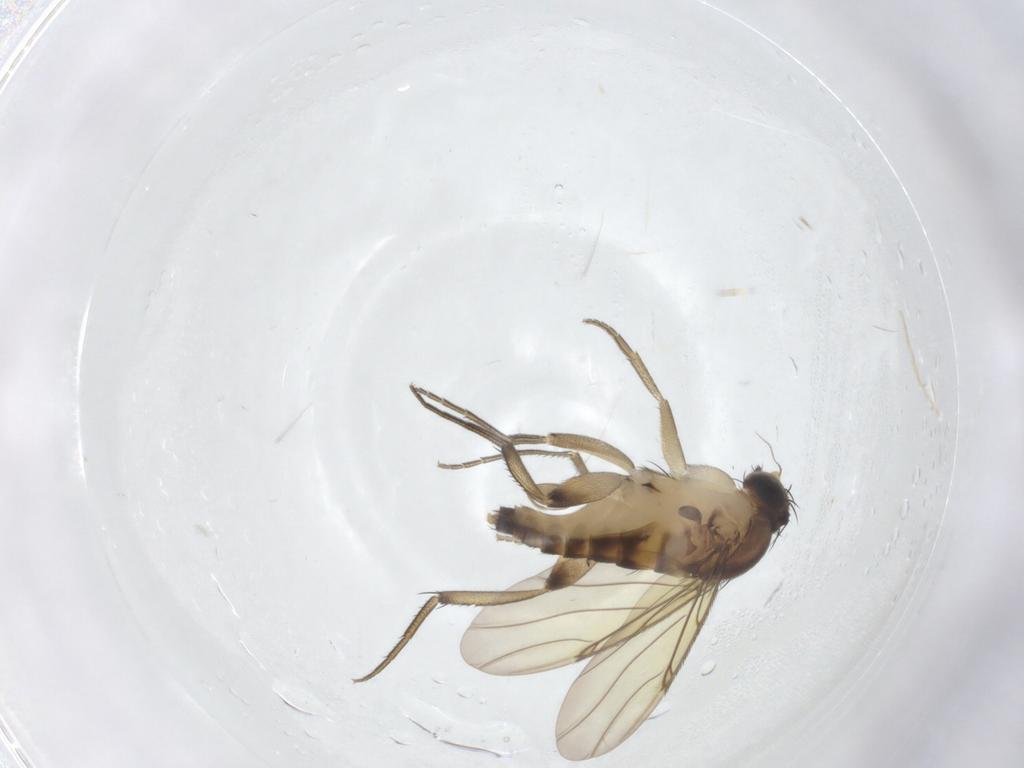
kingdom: Animalia
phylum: Arthropoda
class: Insecta
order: Diptera
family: Phoridae
